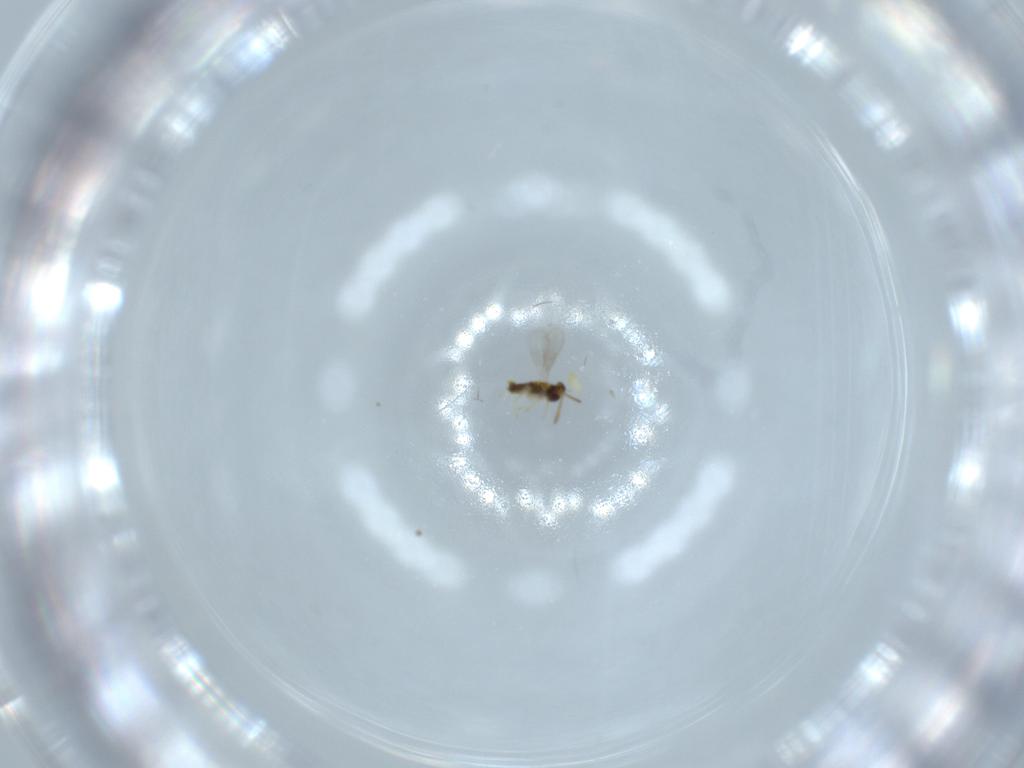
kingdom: Animalia
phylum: Arthropoda
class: Insecta
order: Hymenoptera
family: Aphelinidae
